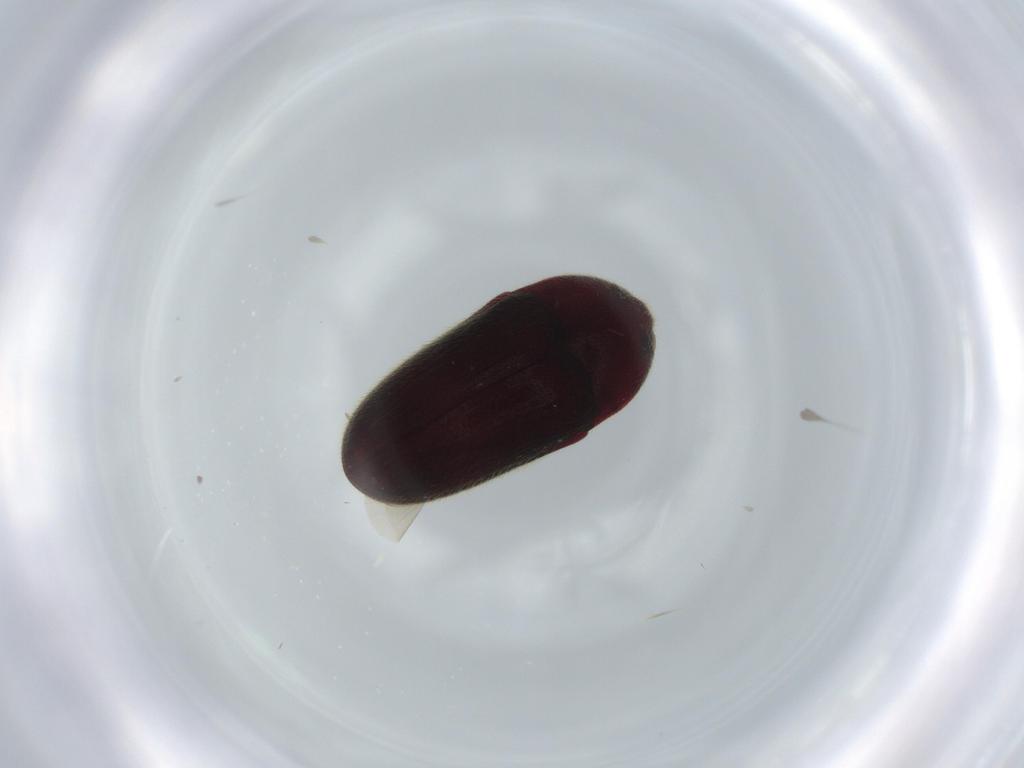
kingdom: Animalia
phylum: Arthropoda
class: Insecta
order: Coleoptera
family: Throscidae
